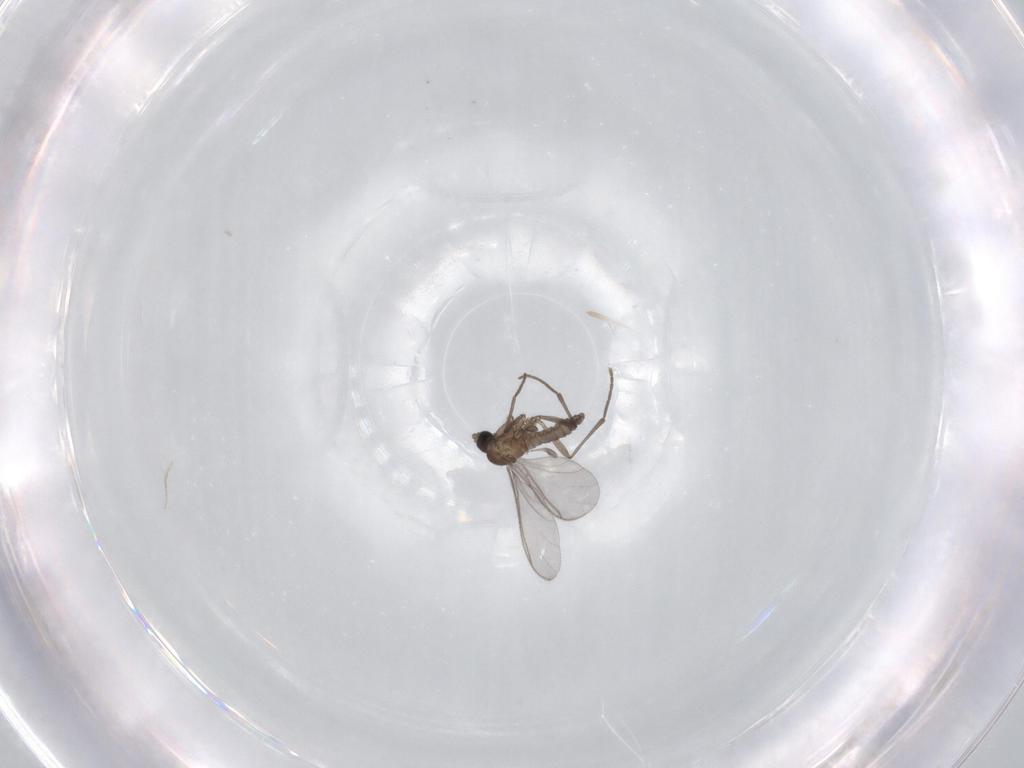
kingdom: Animalia
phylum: Arthropoda
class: Insecta
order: Diptera
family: Sciaridae
